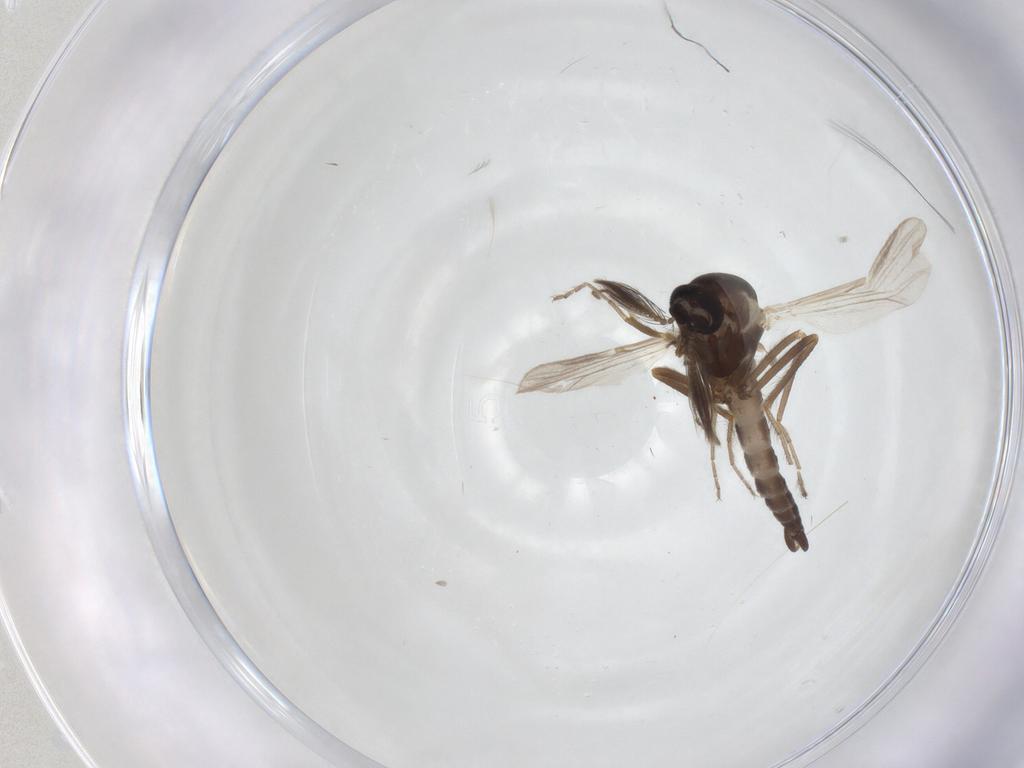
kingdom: Animalia
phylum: Arthropoda
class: Insecta
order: Diptera
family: Ceratopogonidae
